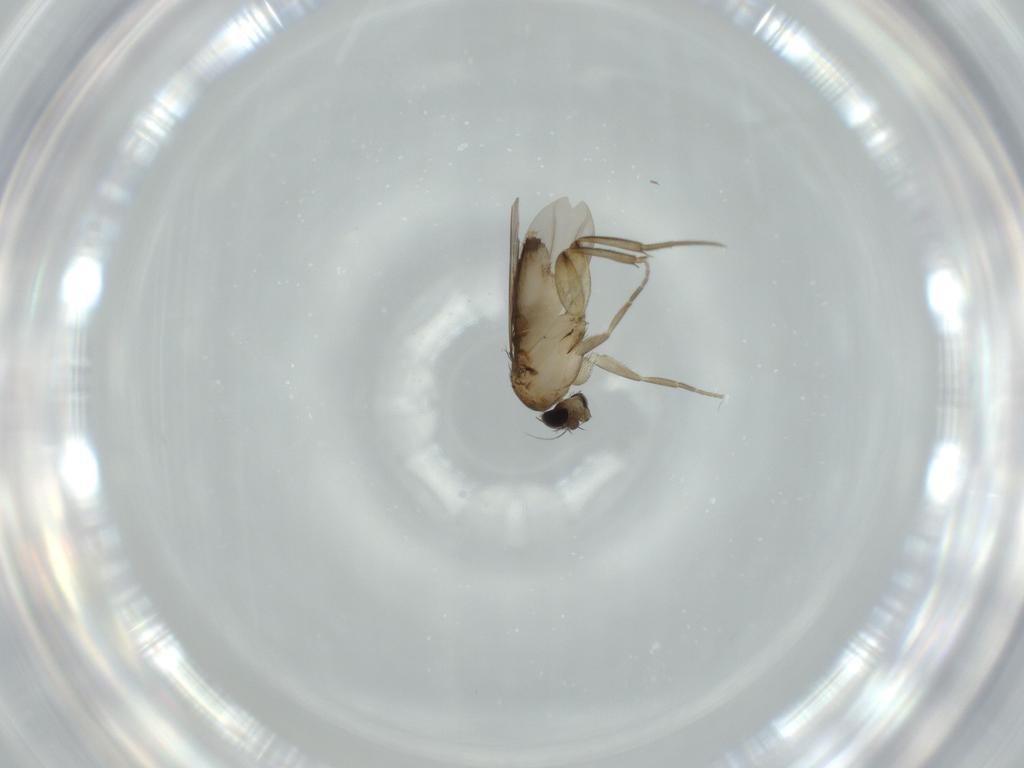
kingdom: Animalia
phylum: Arthropoda
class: Insecta
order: Diptera
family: Phoridae
